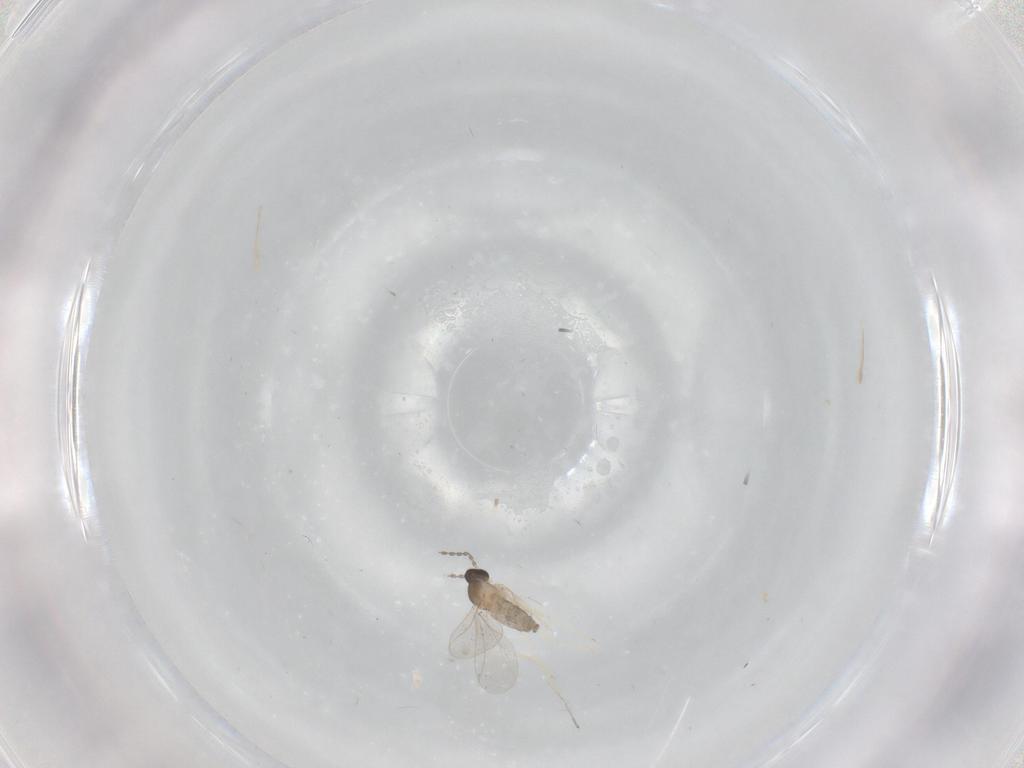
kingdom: Animalia
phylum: Arthropoda
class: Insecta
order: Diptera
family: Cecidomyiidae
